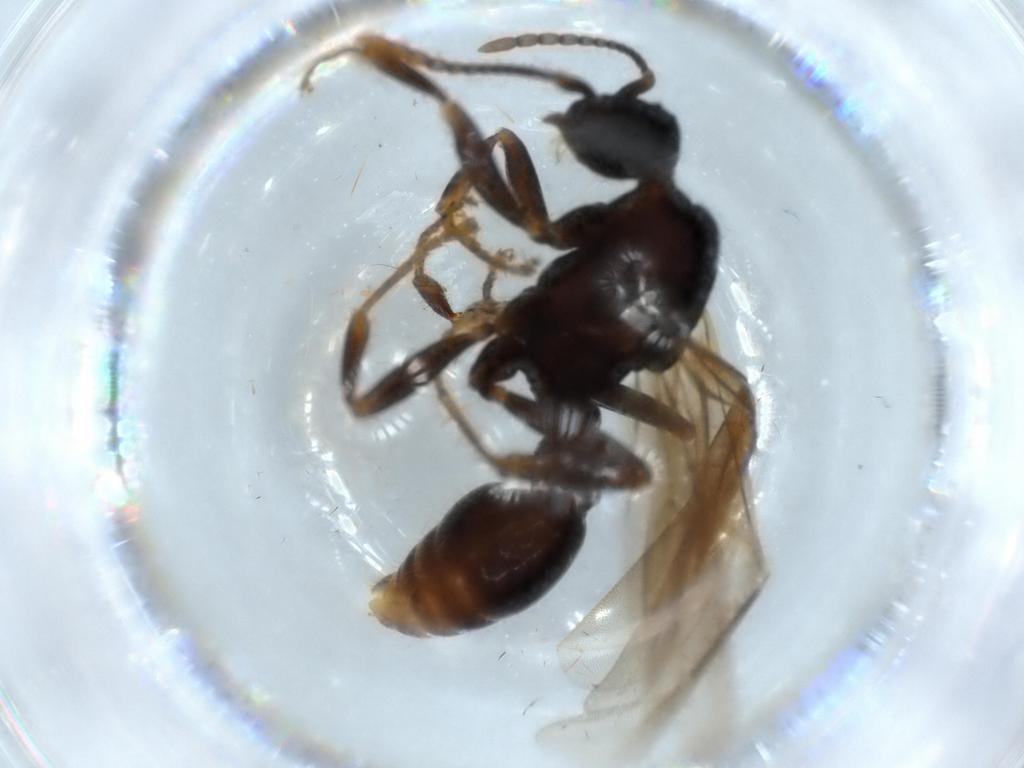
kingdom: Animalia
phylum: Arthropoda
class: Insecta
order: Hymenoptera
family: Formicidae
